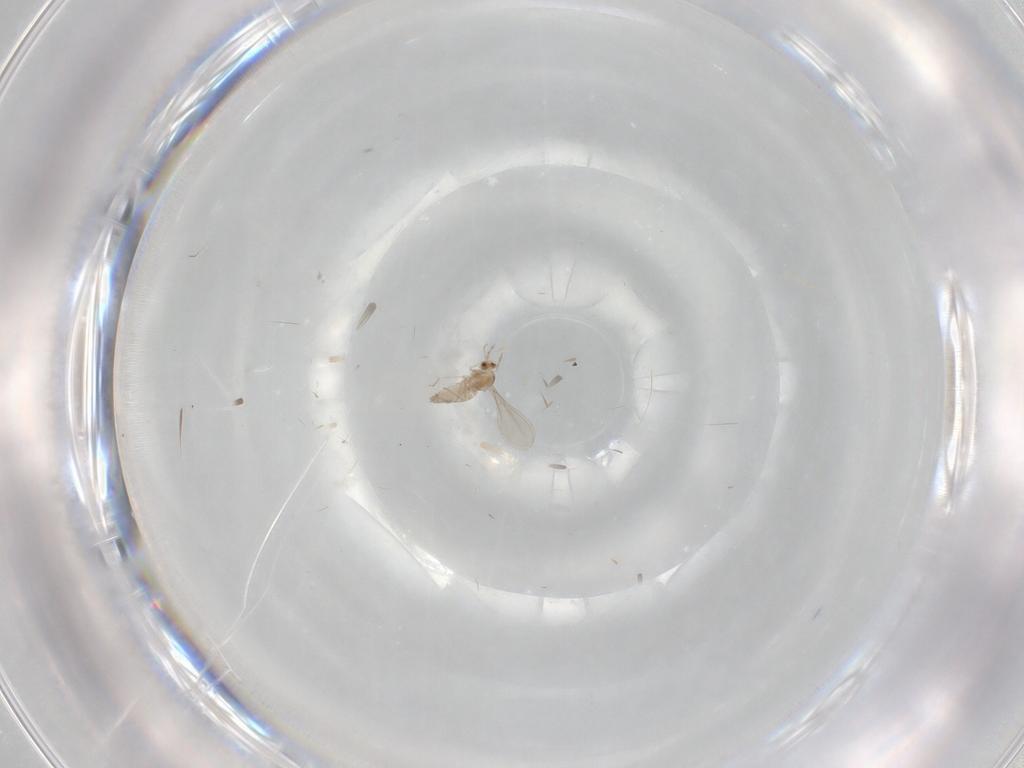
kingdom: Animalia
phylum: Arthropoda
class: Insecta
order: Diptera
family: Cecidomyiidae
